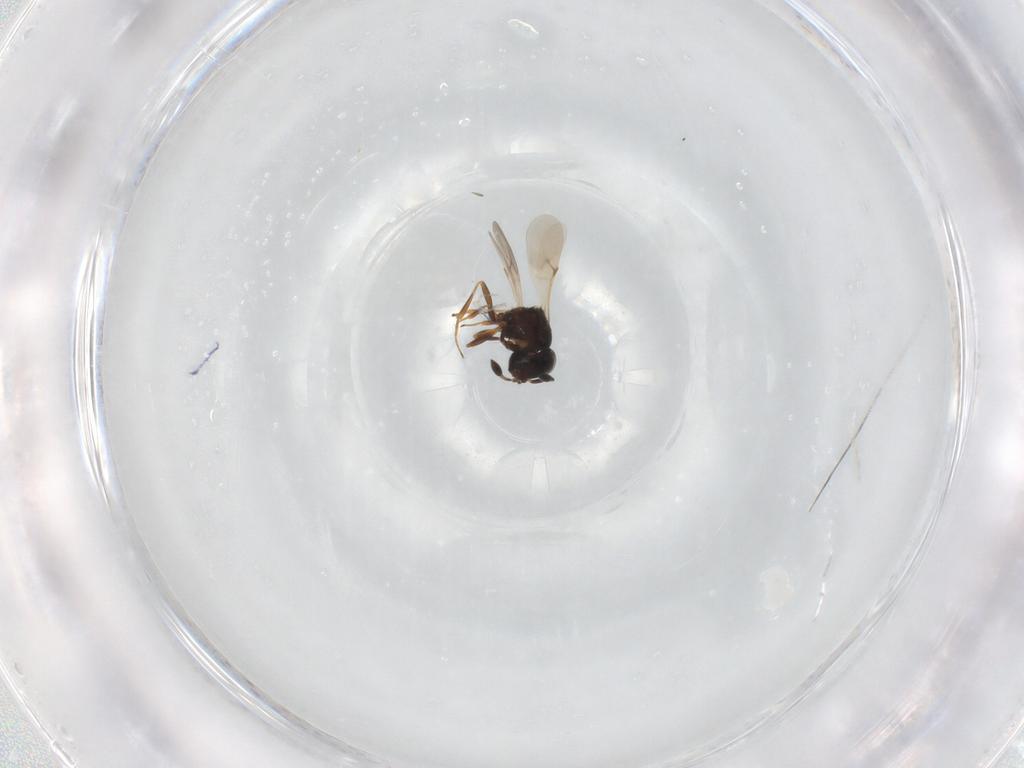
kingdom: Animalia
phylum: Arthropoda
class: Insecta
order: Hymenoptera
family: Scelionidae
